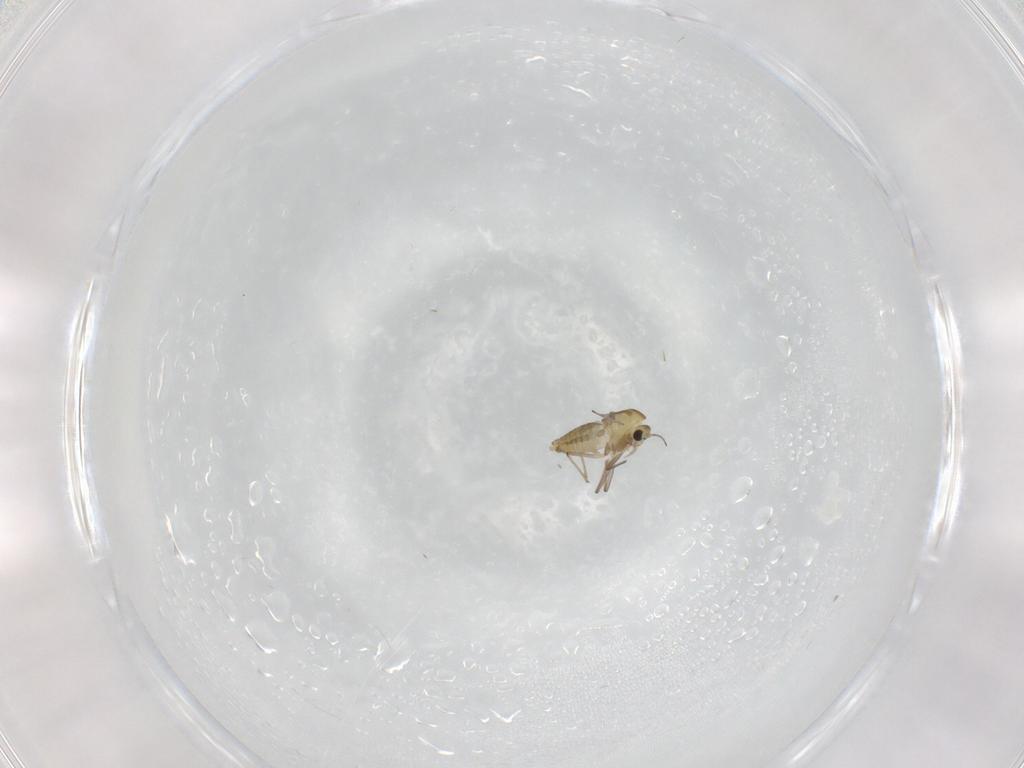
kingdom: Animalia
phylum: Arthropoda
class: Insecta
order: Diptera
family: Chironomidae
